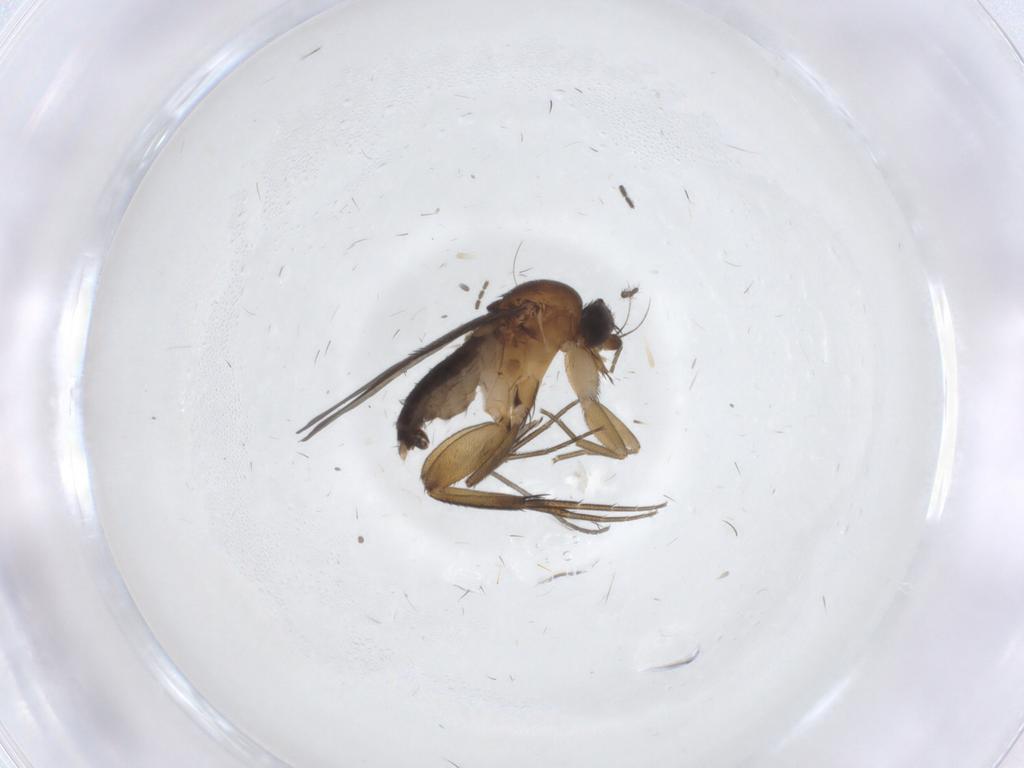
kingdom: Animalia
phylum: Arthropoda
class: Insecta
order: Diptera
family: Phoridae
